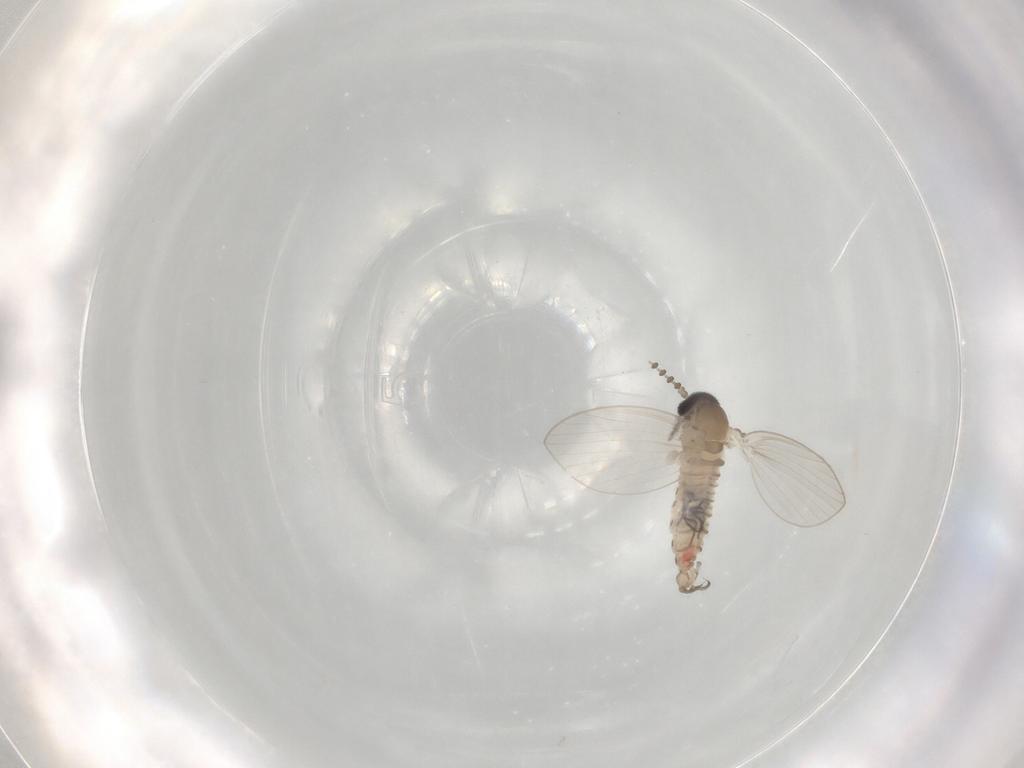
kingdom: Animalia
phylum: Arthropoda
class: Insecta
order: Diptera
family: Psychodidae
